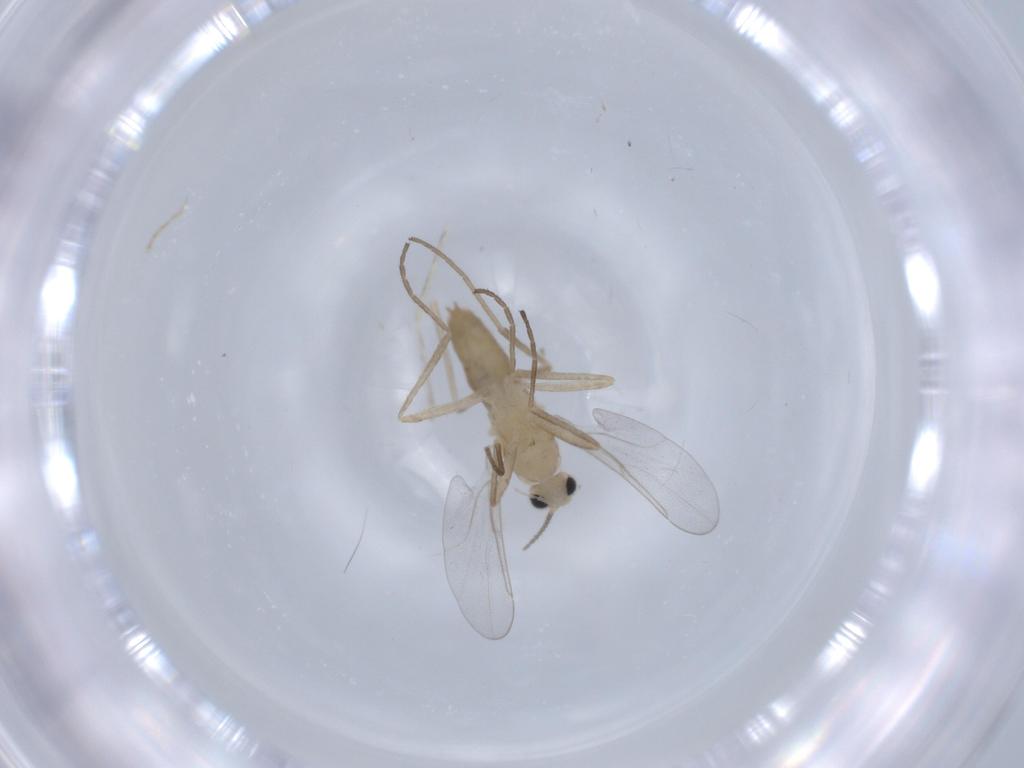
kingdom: Animalia
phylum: Arthropoda
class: Insecta
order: Diptera
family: Cecidomyiidae
